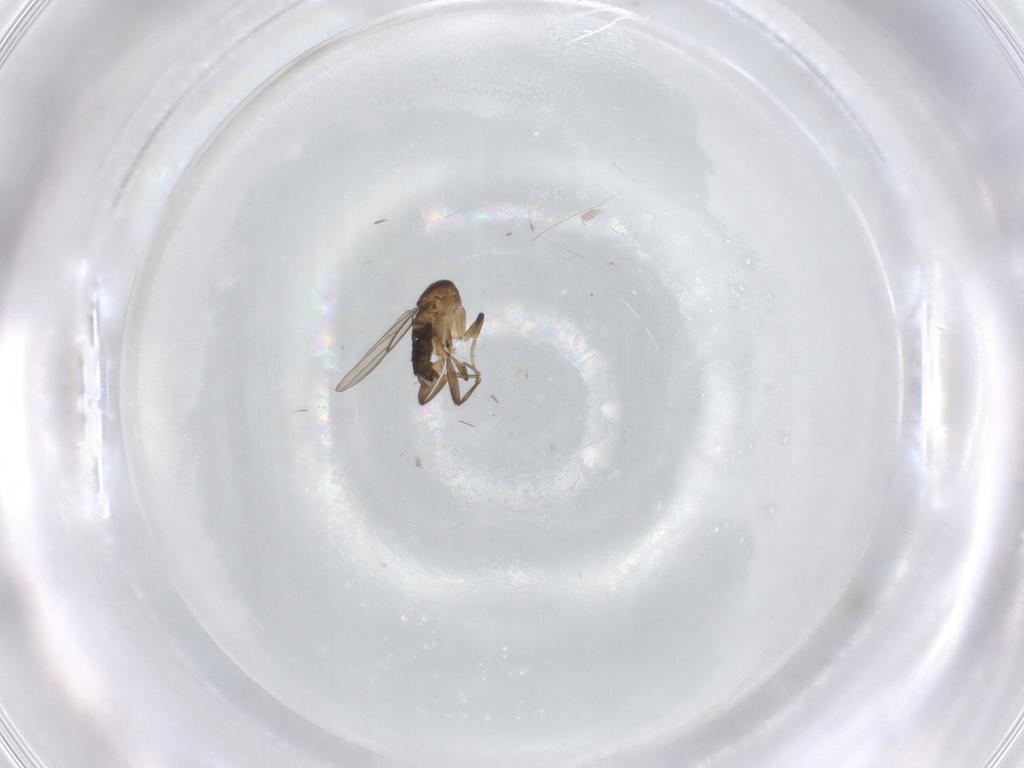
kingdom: Animalia
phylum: Arthropoda
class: Insecta
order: Diptera
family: Phoridae
